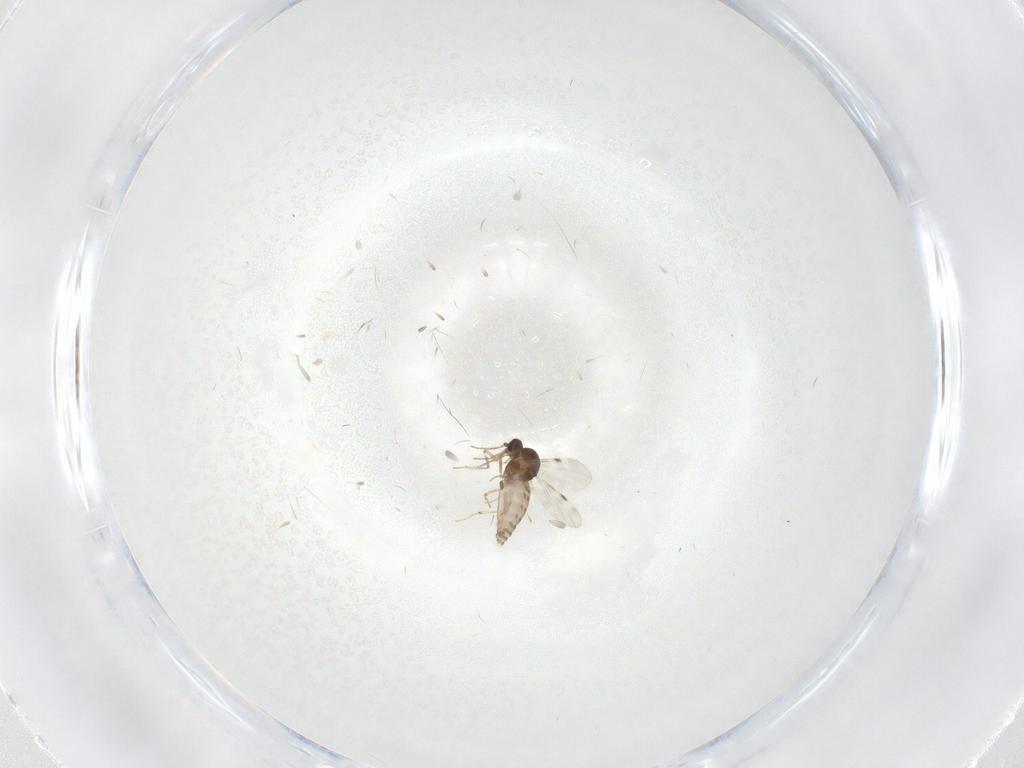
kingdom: Animalia
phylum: Arthropoda
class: Insecta
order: Diptera
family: Chironomidae
